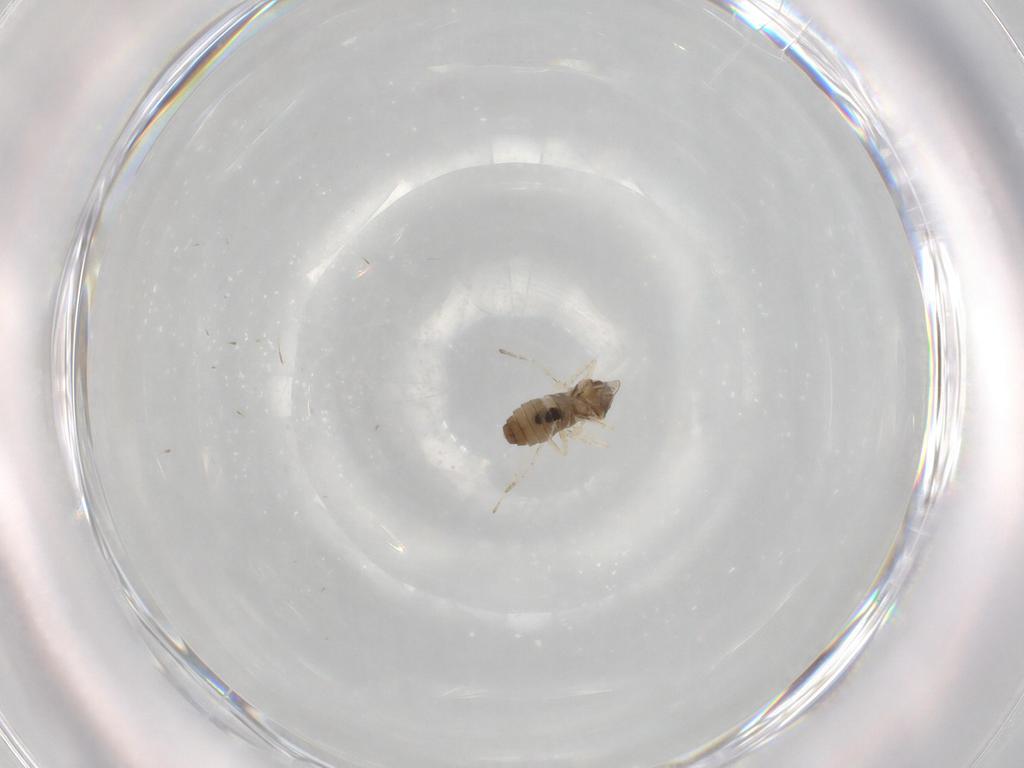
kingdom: Animalia
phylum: Arthropoda
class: Insecta
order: Diptera
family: Cecidomyiidae
